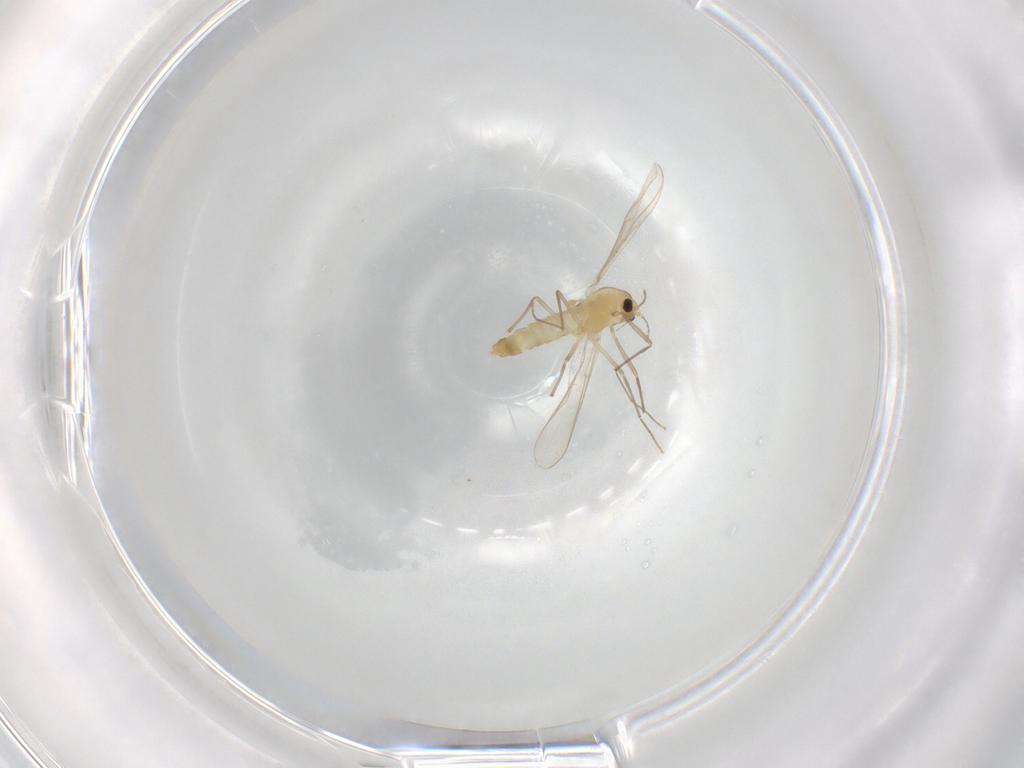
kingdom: Animalia
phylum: Arthropoda
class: Insecta
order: Diptera
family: Chironomidae
